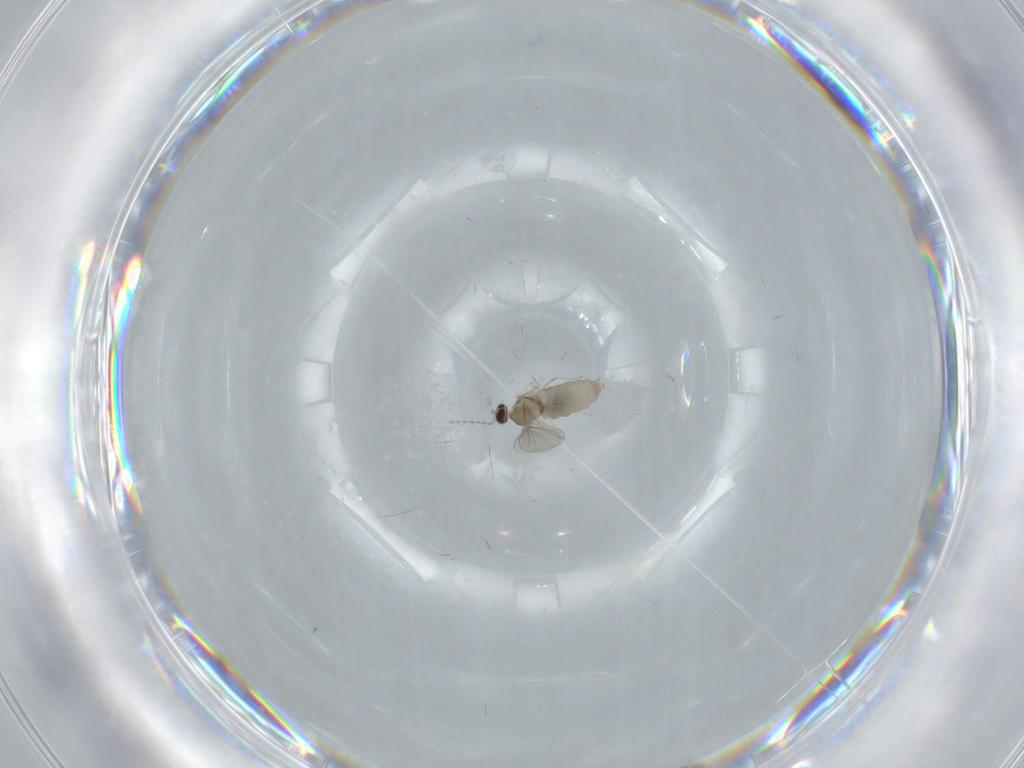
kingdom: Animalia
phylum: Arthropoda
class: Insecta
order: Diptera
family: Cecidomyiidae
